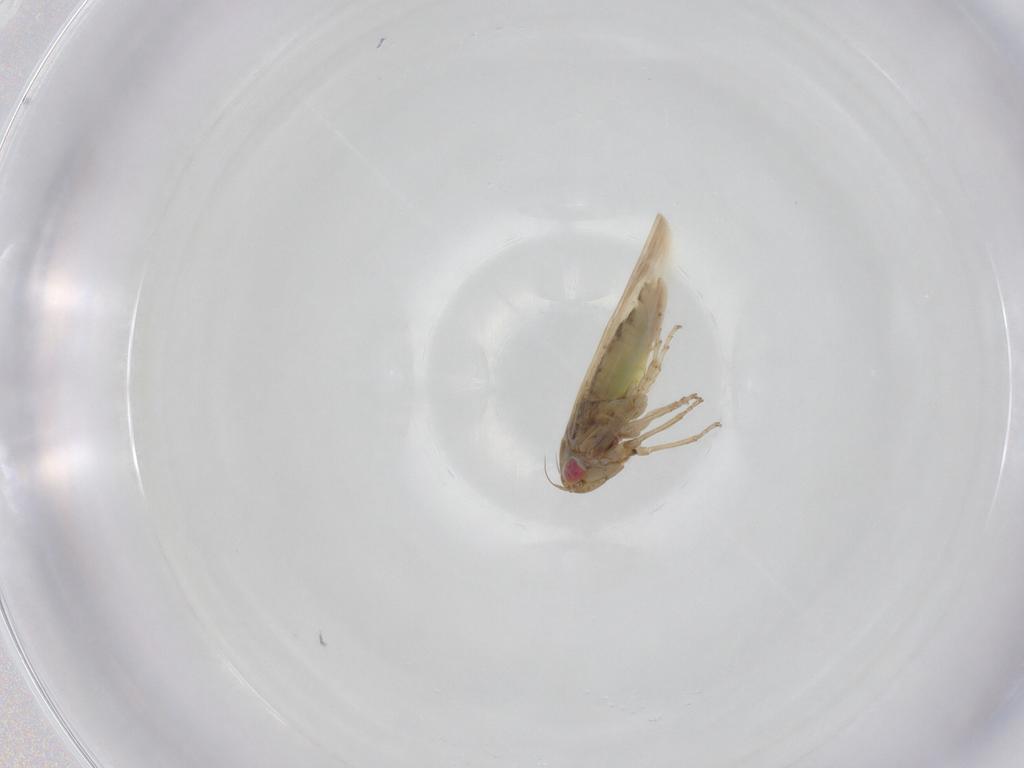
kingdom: Animalia
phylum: Arthropoda
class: Insecta
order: Hemiptera
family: Cicadellidae
